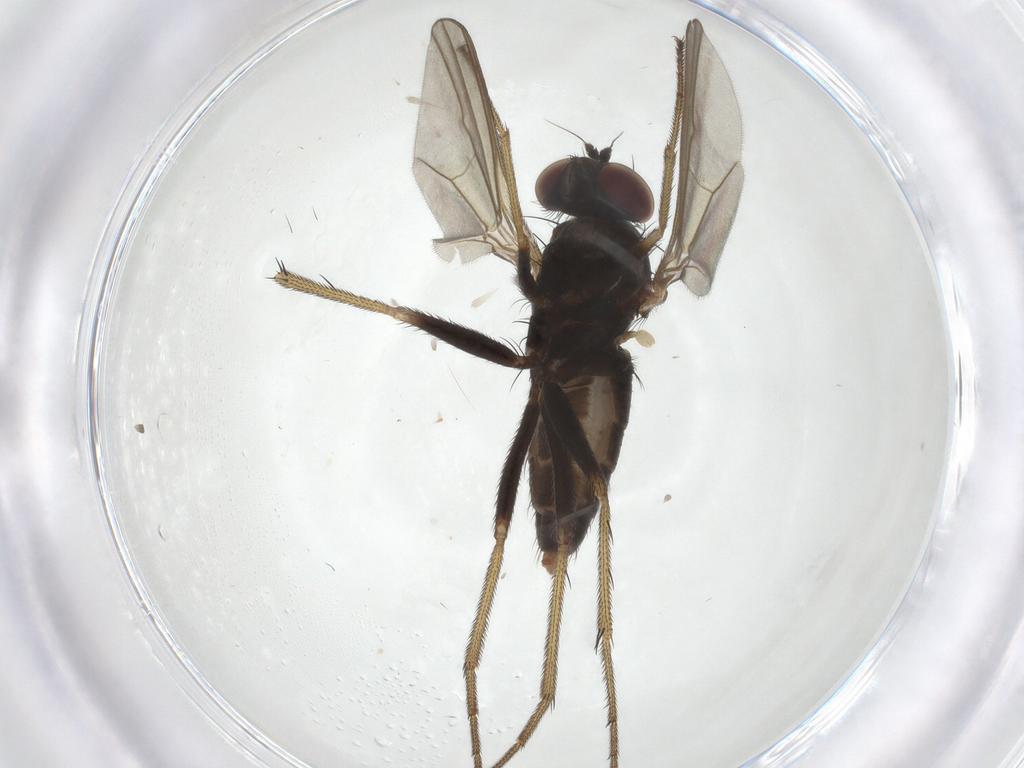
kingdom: Animalia
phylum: Arthropoda
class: Insecta
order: Diptera
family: Dolichopodidae
